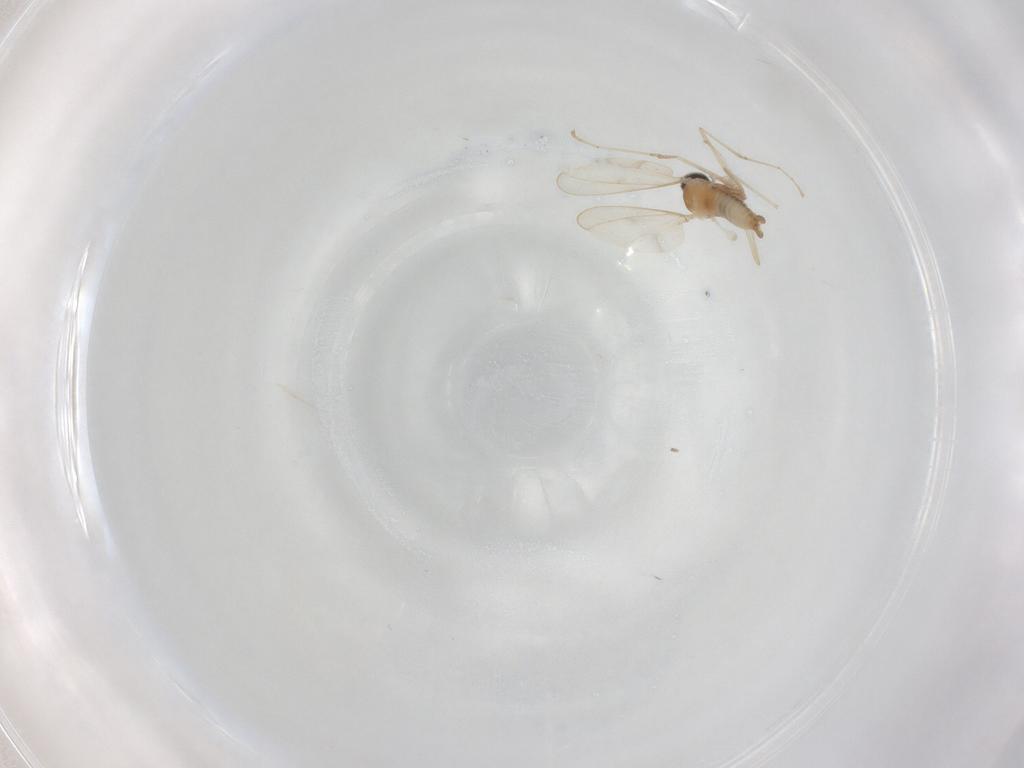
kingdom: Animalia
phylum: Arthropoda
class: Insecta
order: Diptera
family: Cecidomyiidae
